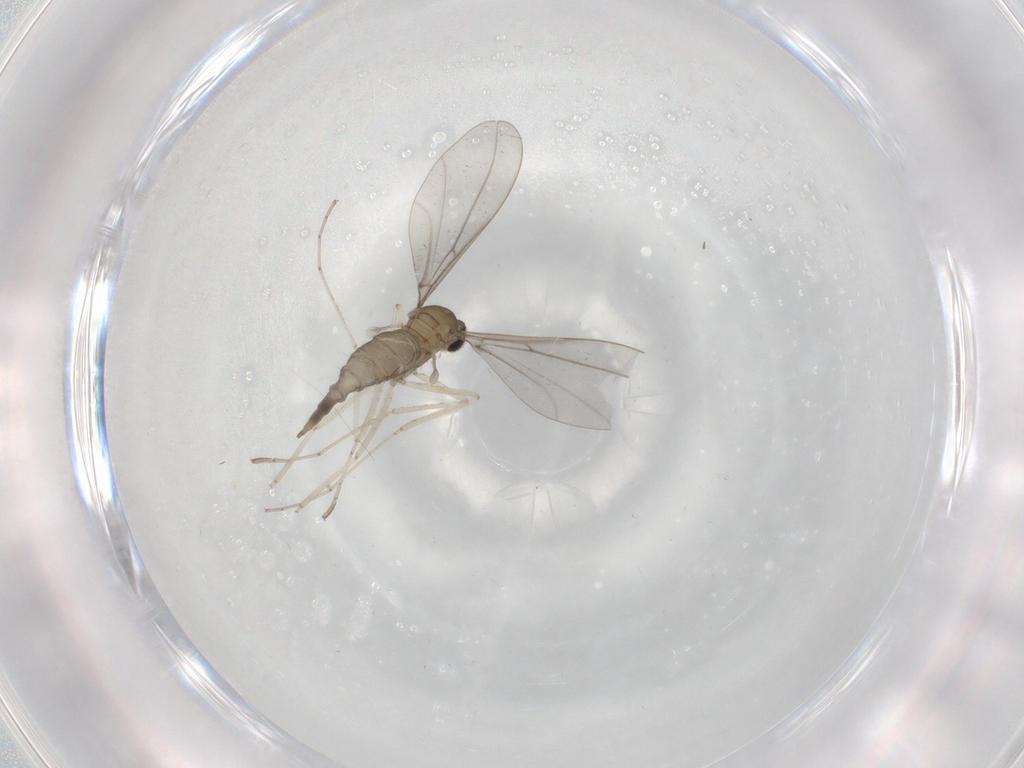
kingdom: Animalia
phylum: Arthropoda
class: Insecta
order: Diptera
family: Cecidomyiidae
